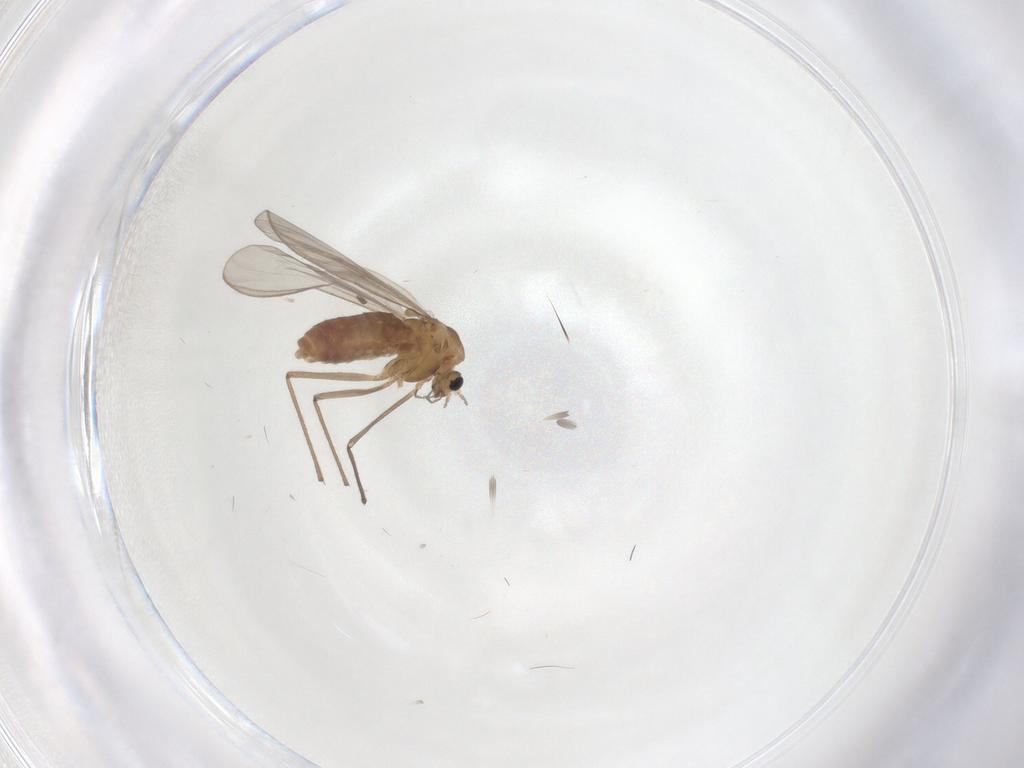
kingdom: Animalia
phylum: Arthropoda
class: Insecta
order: Diptera
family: Chironomidae
